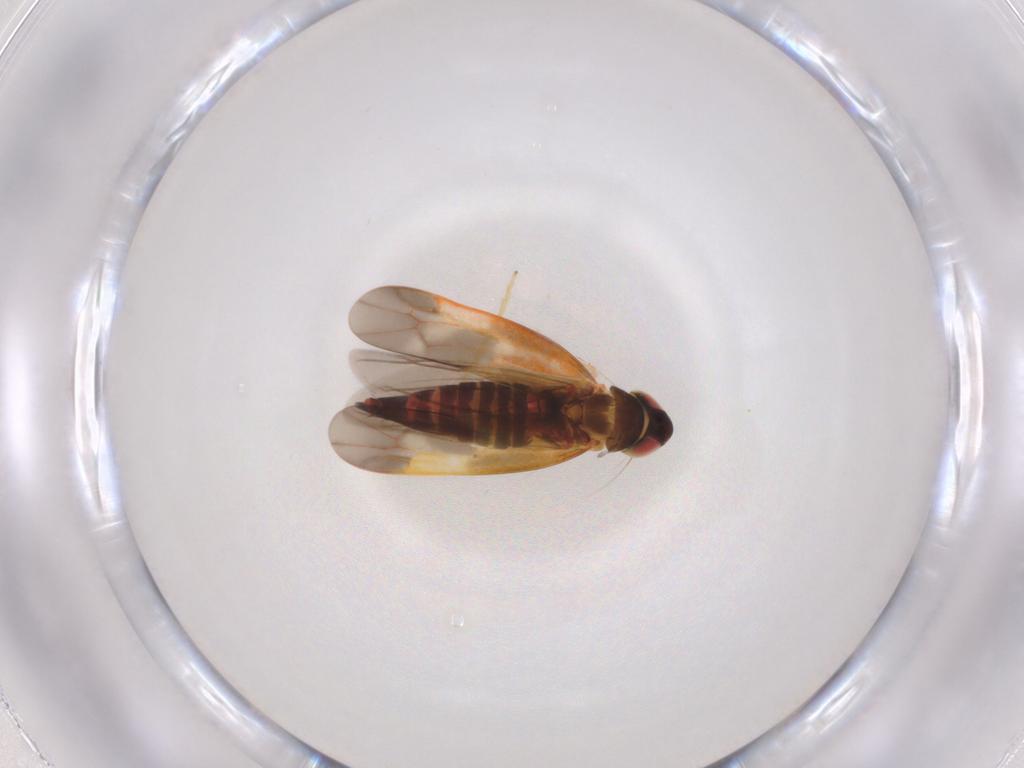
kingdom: Animalia
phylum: Arthropoda
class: Insecta
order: Hemiptera
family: Cicadellidae
